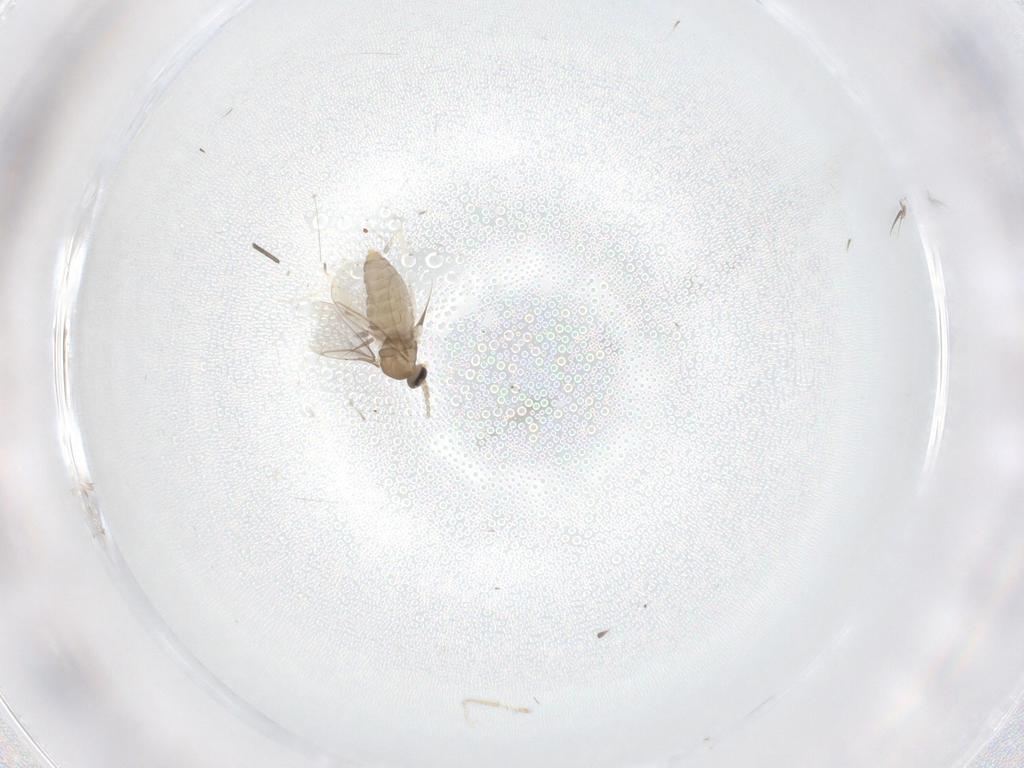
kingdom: Animalia
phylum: Arthropoda
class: Insecta
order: Diptera
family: Cecidomyiidae
